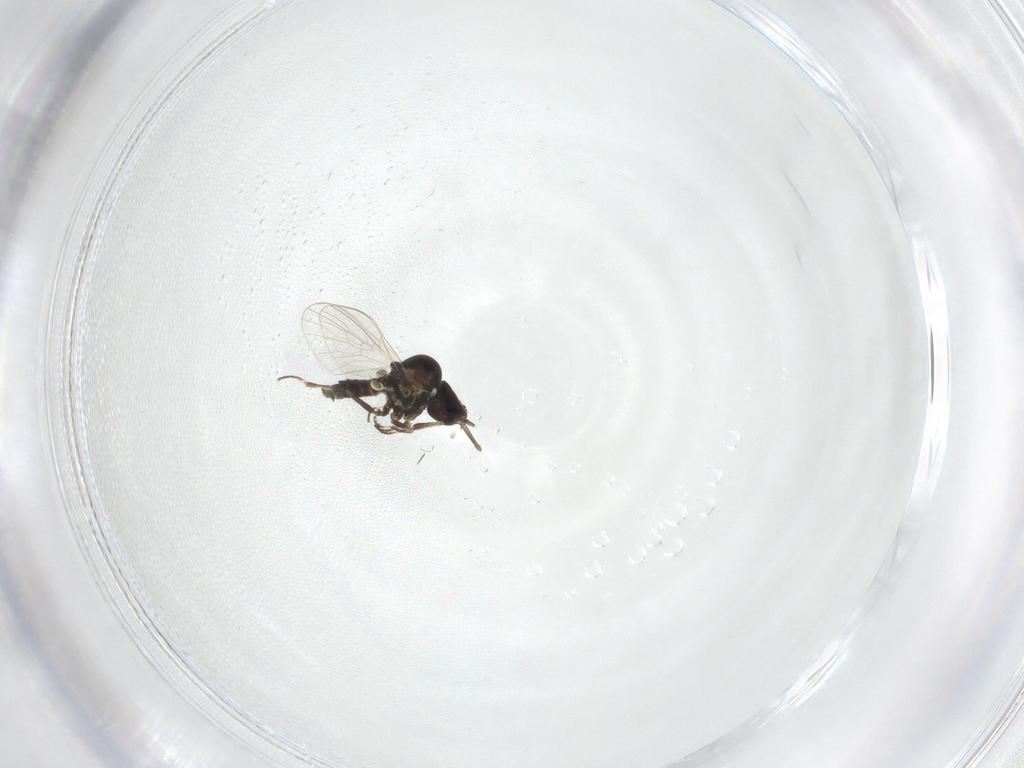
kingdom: Animalia
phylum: Arthropoda
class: Insecta
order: Diptera
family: Mythicomyiidae
